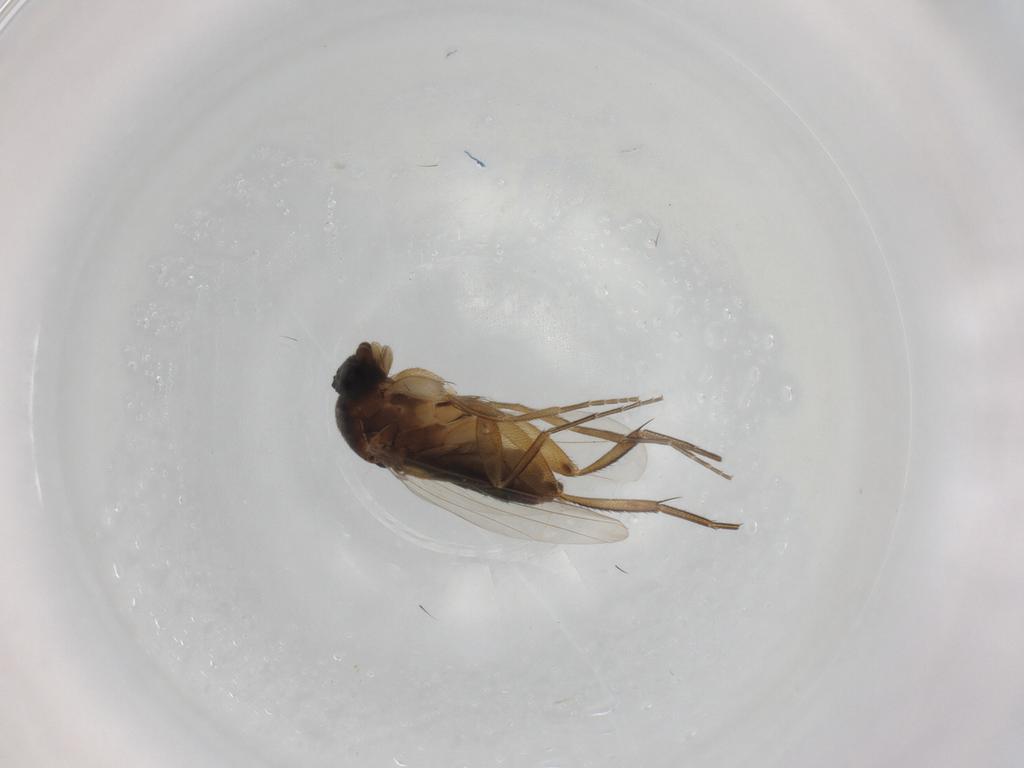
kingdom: Animalia
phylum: Arthropoda
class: Insecta
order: Diptera
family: Phoridae
